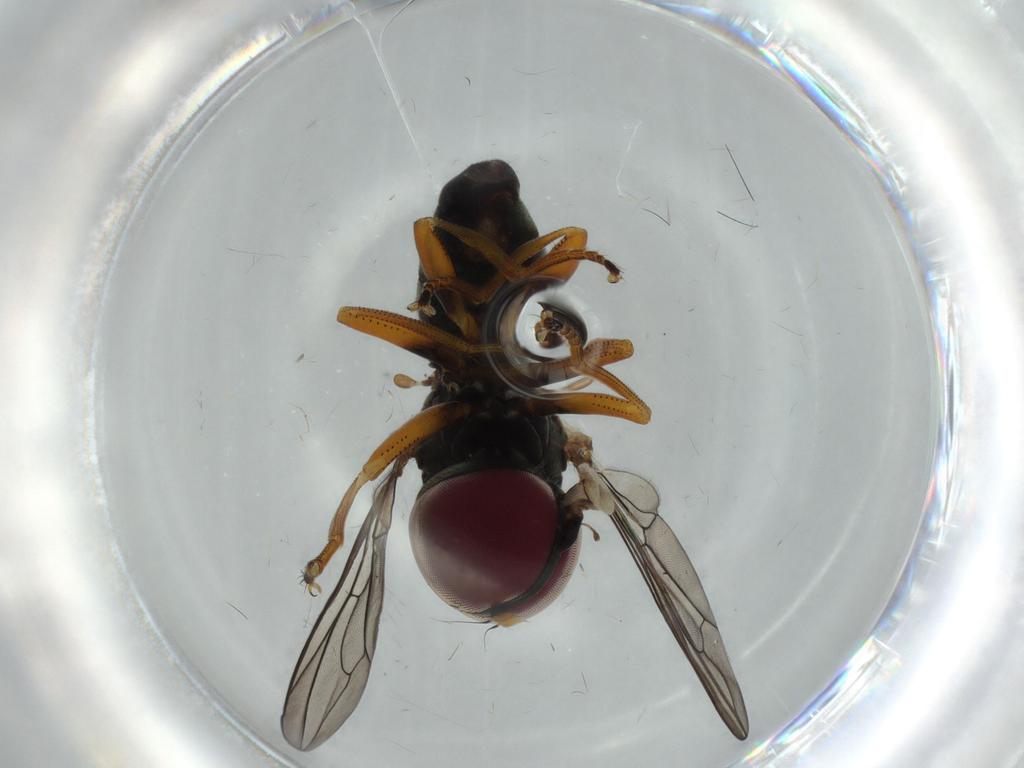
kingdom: Animalia
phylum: Arthropoda
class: Insecta
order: Diptera
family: Pipunculidae
